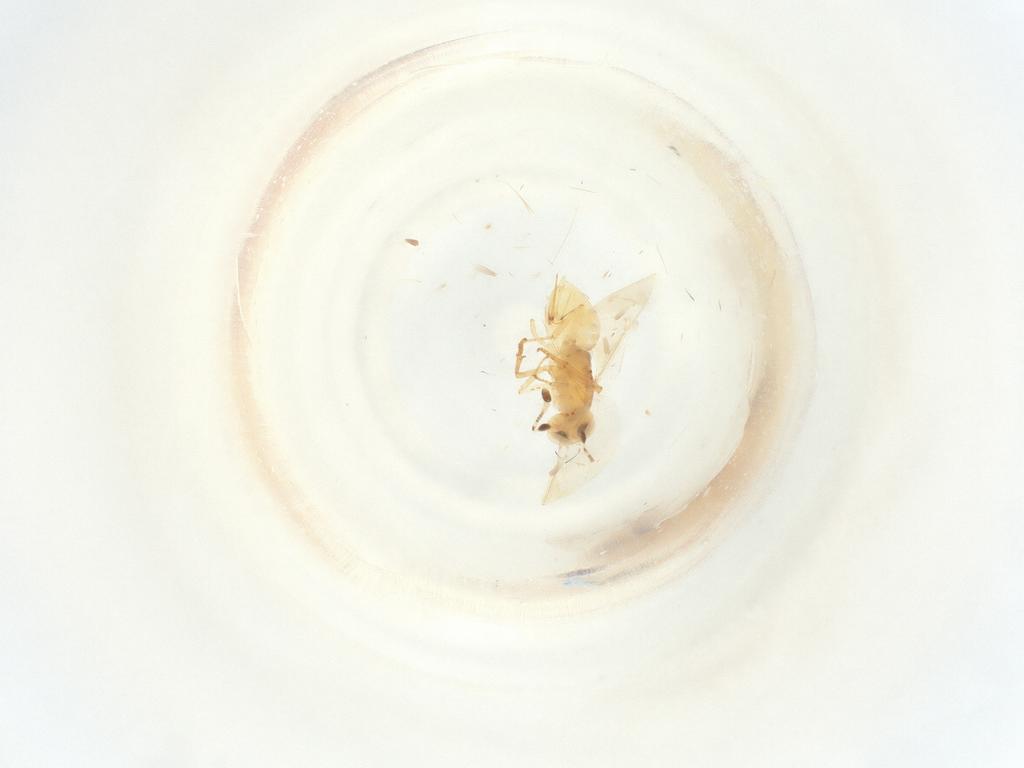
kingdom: Animalia
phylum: Arthropoda
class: Insecta
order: Hymenoptera
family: Encyrtidae
